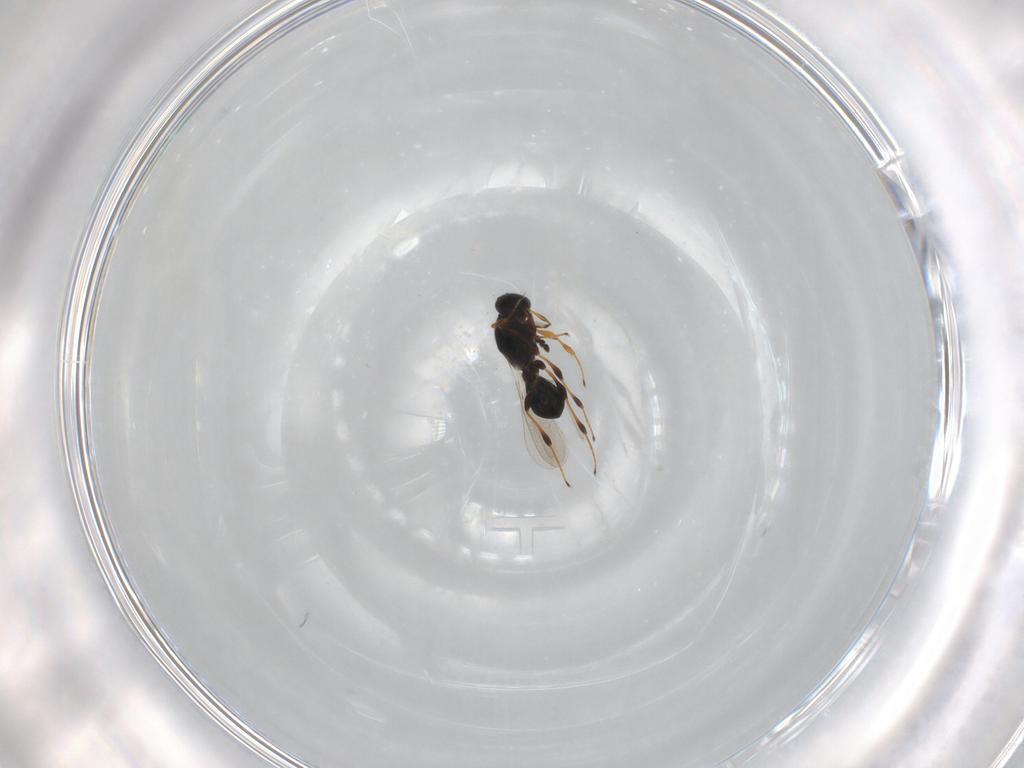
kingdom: Animalia
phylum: Arthropoda
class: Insecta
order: Hymenoptera
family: Platygastridae
